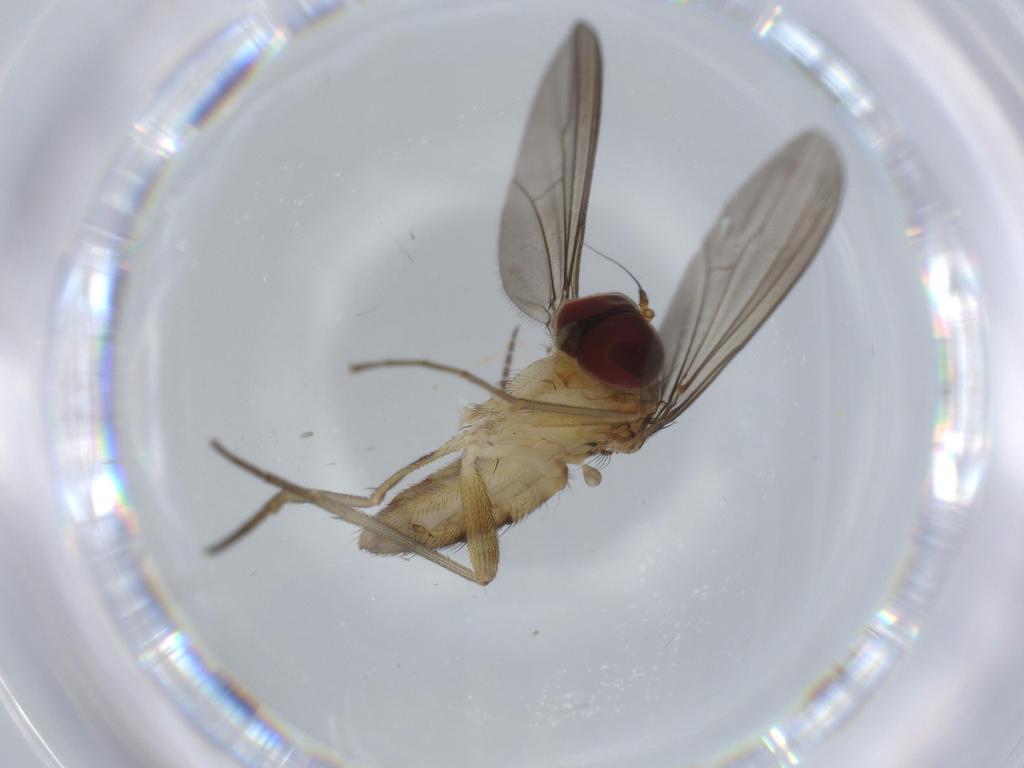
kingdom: Animalia
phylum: Arthropoda
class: Insecta
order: Diptera
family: Sciaridae
